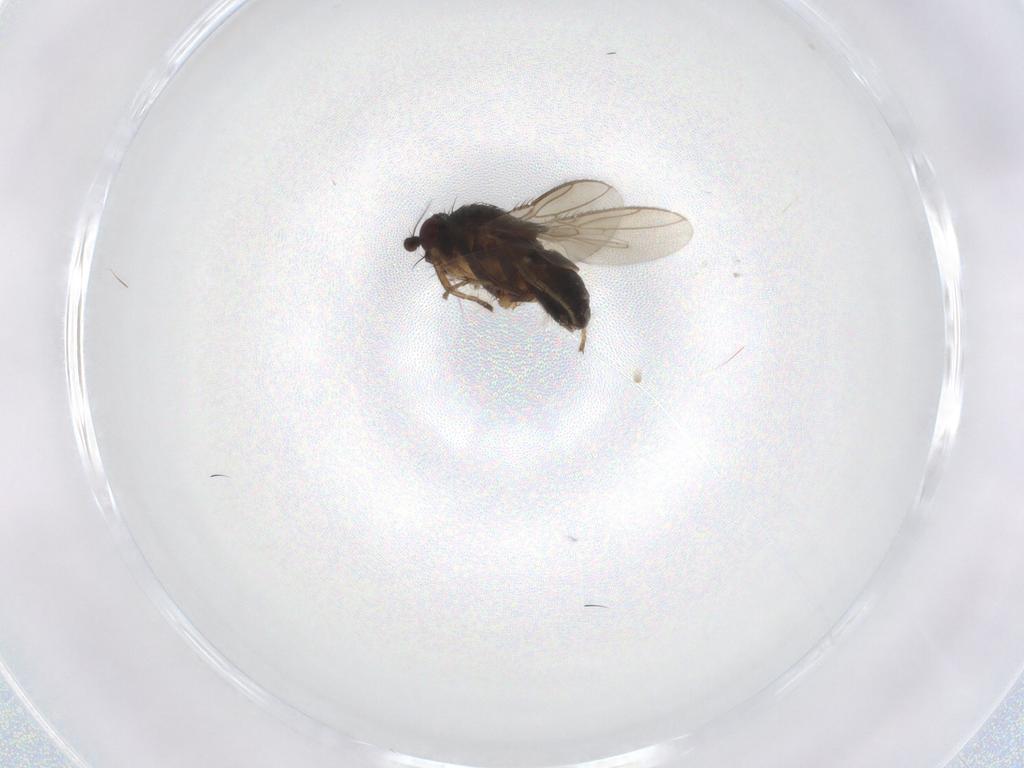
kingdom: Animalia
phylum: Arthropoda
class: Insecta
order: Diptera
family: Sphaeroceridae
